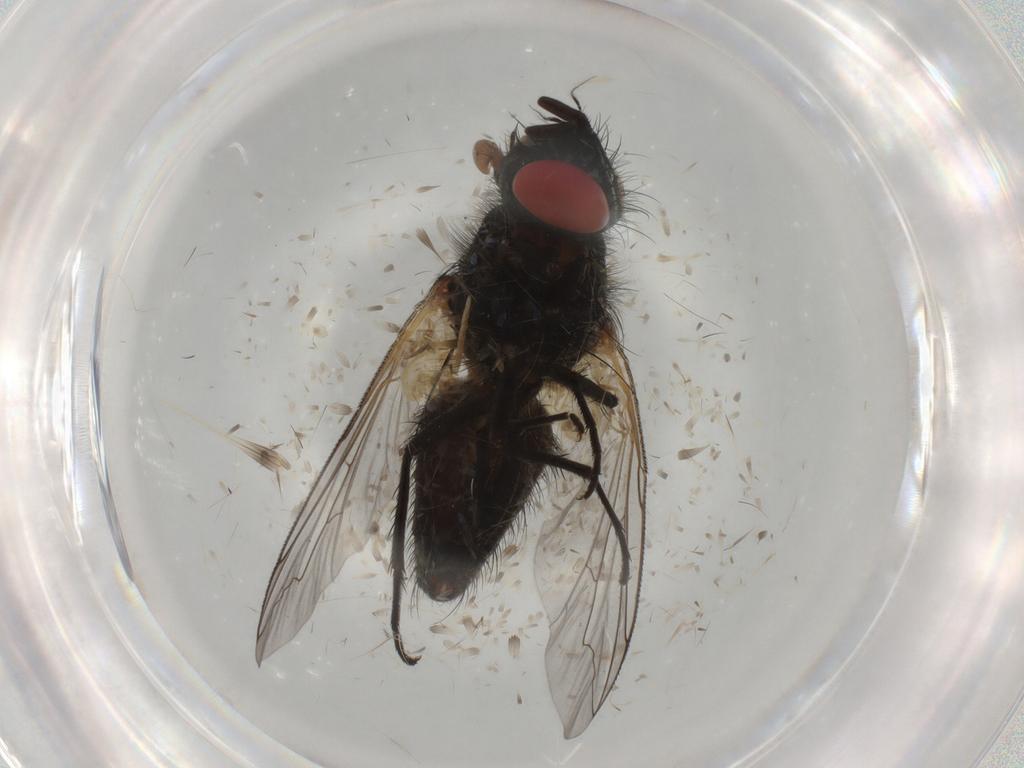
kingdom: Animalia
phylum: Arthropoda
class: Insecta
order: Diptera
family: Sarcophagidae
